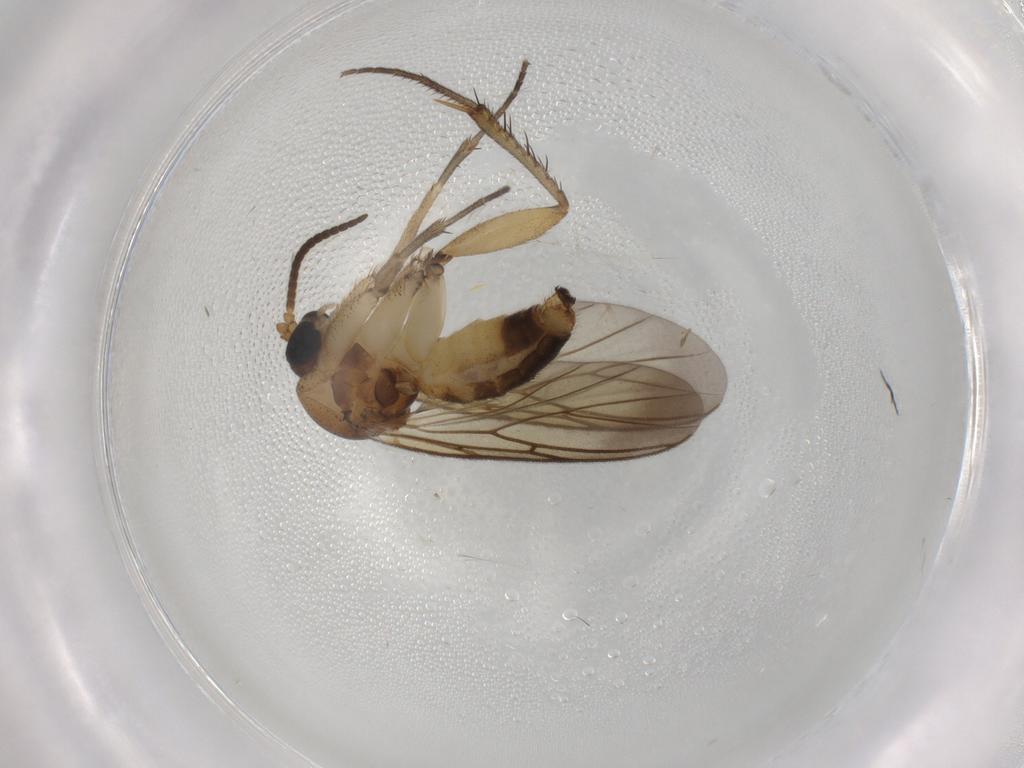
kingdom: Animalia
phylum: Arthropoda
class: Insecta
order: Diptera
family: Mycetophilidae
